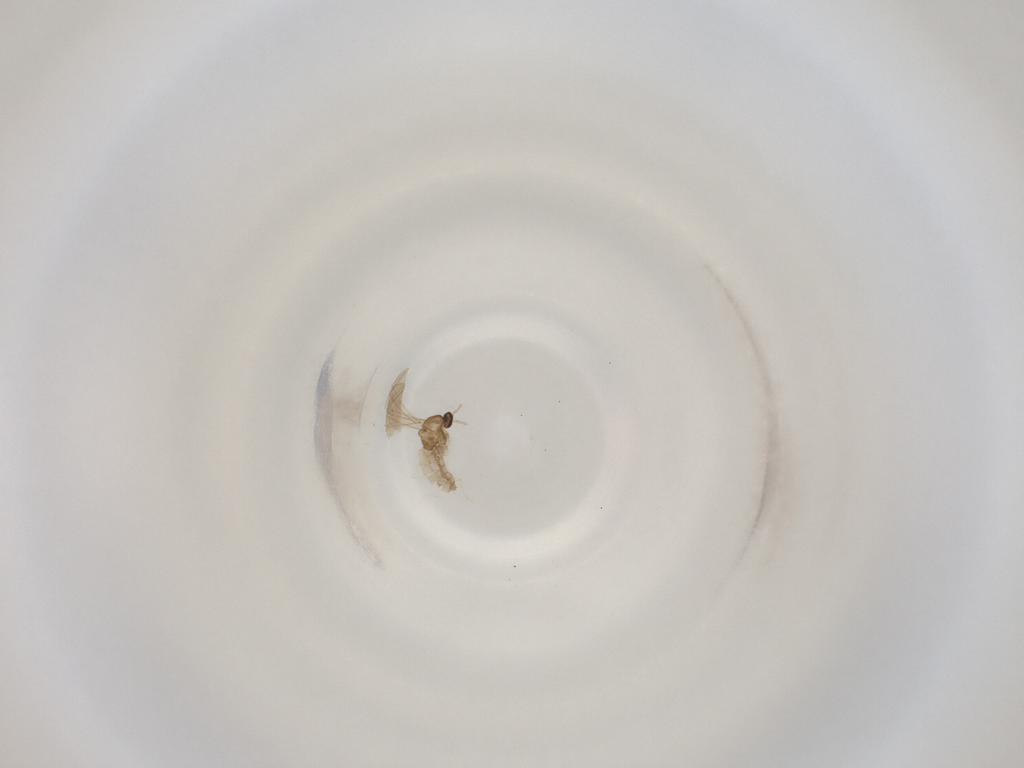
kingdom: Animalia
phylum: Arthropoda
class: Insecta
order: Diptera
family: Cecidomyiidae
